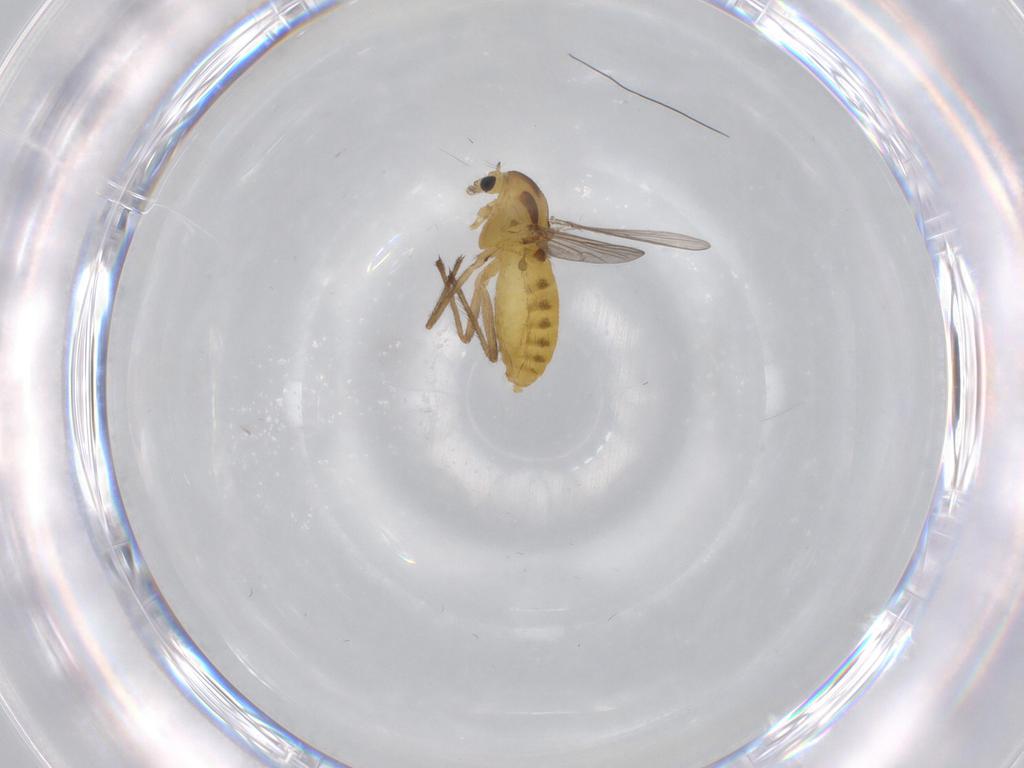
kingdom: Animalia
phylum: Arthropoda
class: Insecta
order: Diptera
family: Chironomidae
